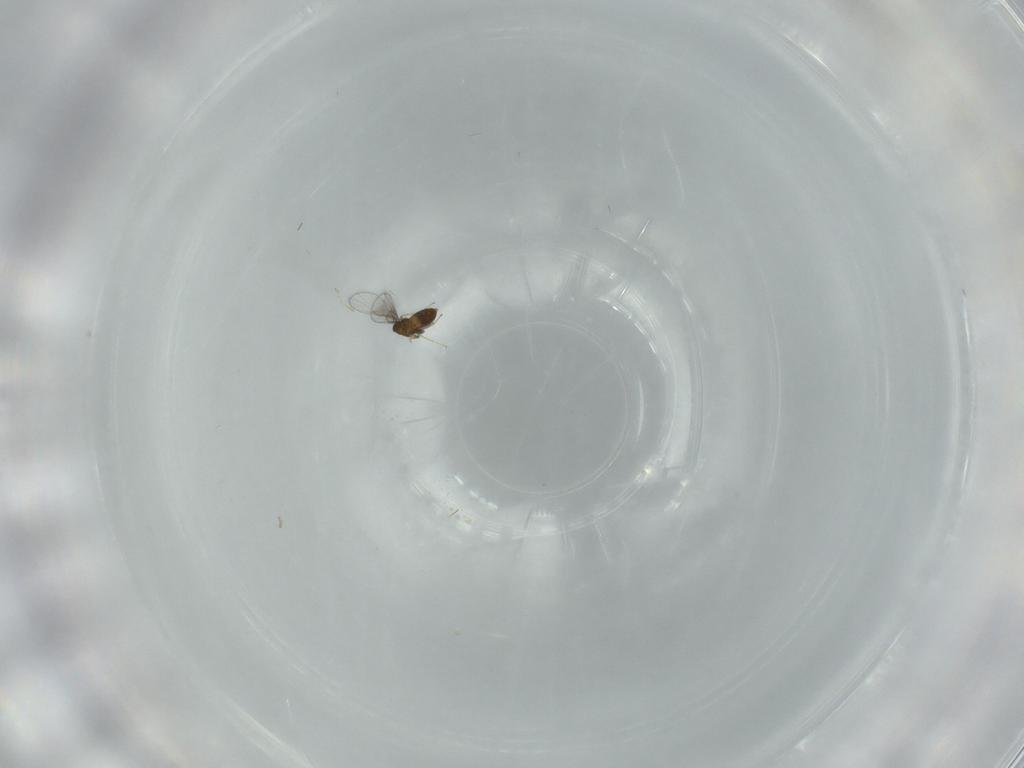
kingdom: Animalia
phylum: Arthropoda
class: Insecta
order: Hymenoptera
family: Trichogrammatidae
